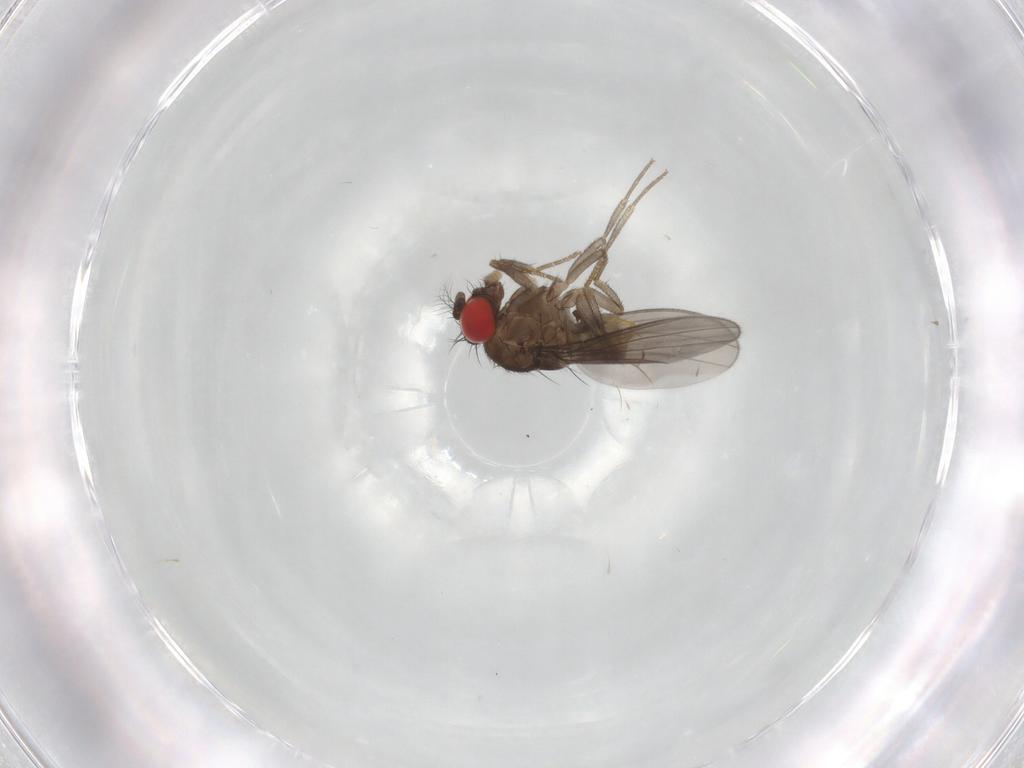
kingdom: Animalia
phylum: Arthropoda
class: Insecta
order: Diptera
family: Drosophilidae
